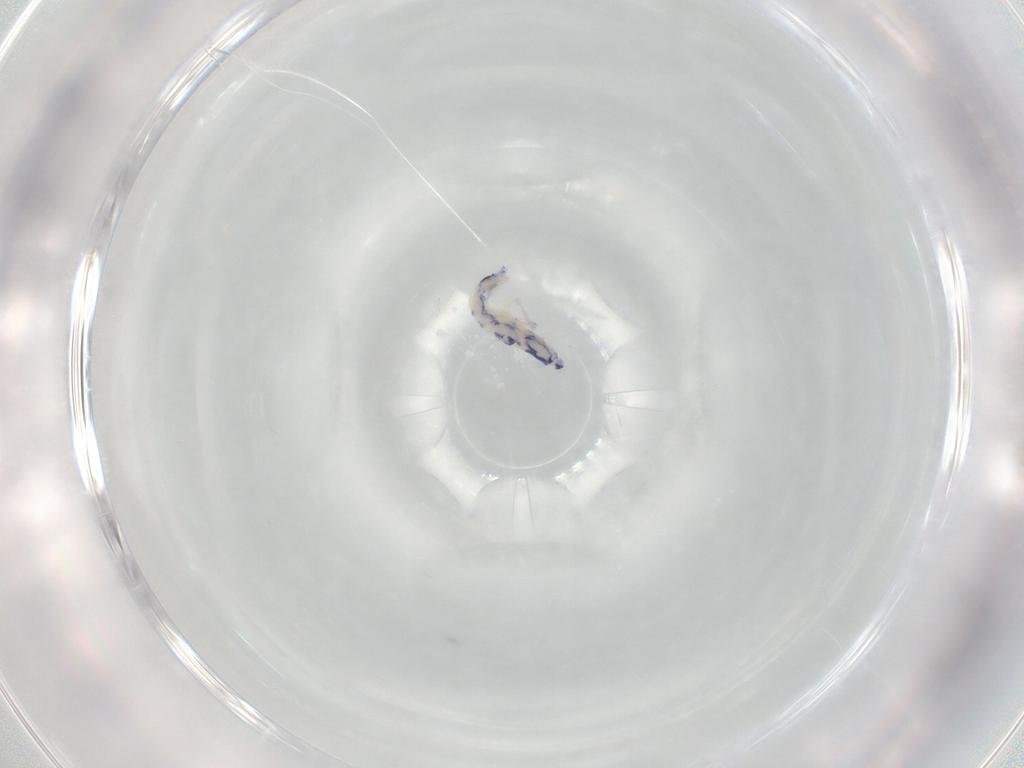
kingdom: Animalia
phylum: Arthropoda
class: Collembola
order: Entomobryomorpha
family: Entomobryidae
